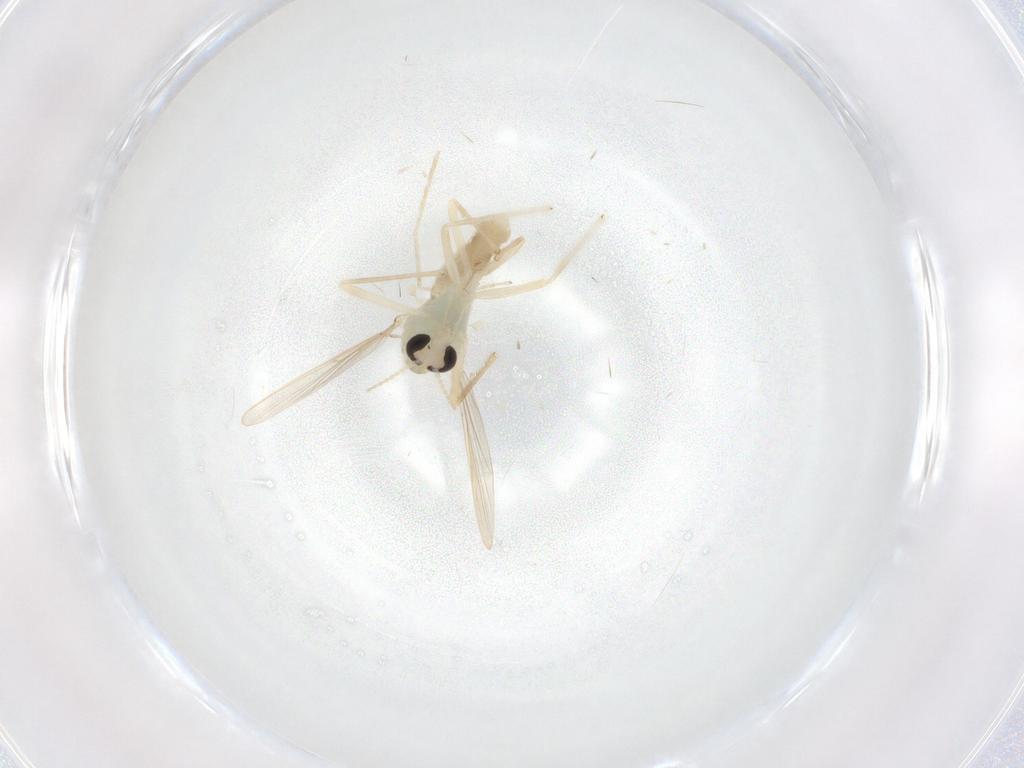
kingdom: Animalia
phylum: Arthropoda
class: Insecta
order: Diptera
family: Chironomidae
